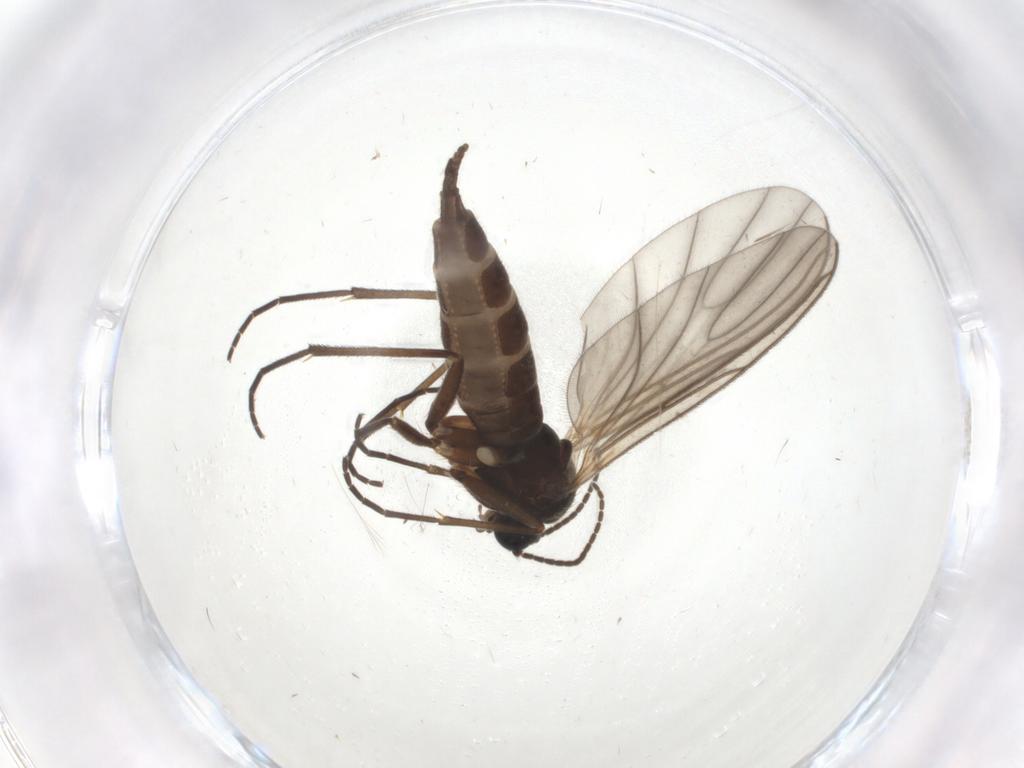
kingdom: Animalia
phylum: Arthropoda
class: Insecta
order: Diptera
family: Sciaridae
